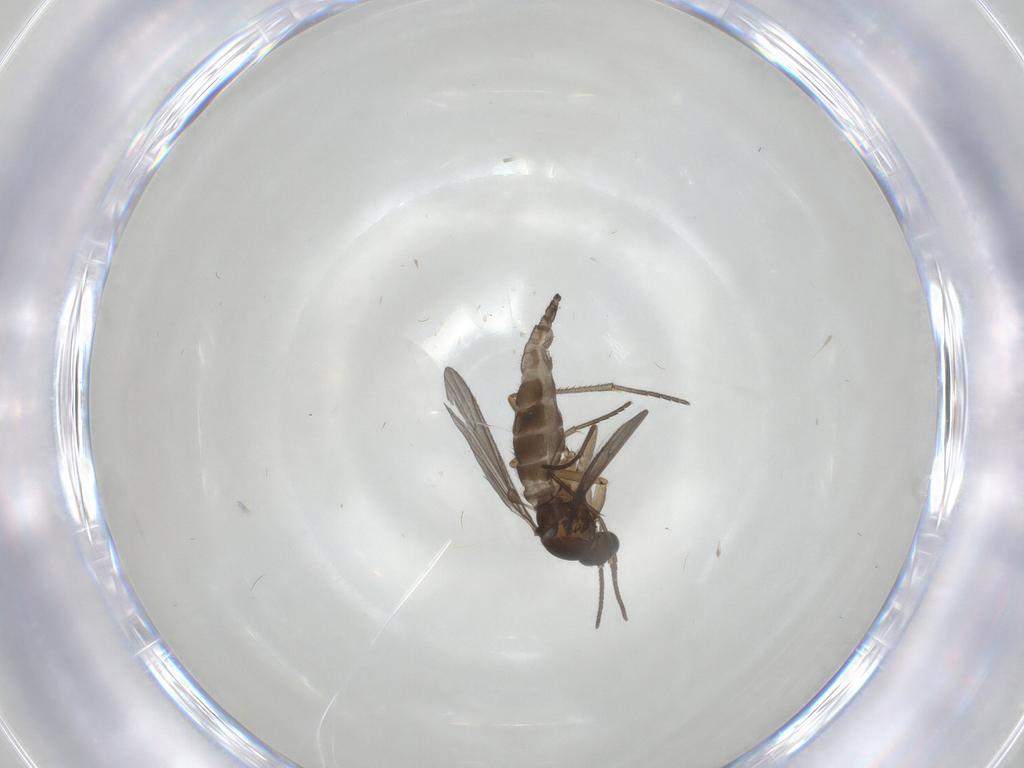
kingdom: Animalia
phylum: Arthropoda
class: Insecta
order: Diptera
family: Sciaridae
